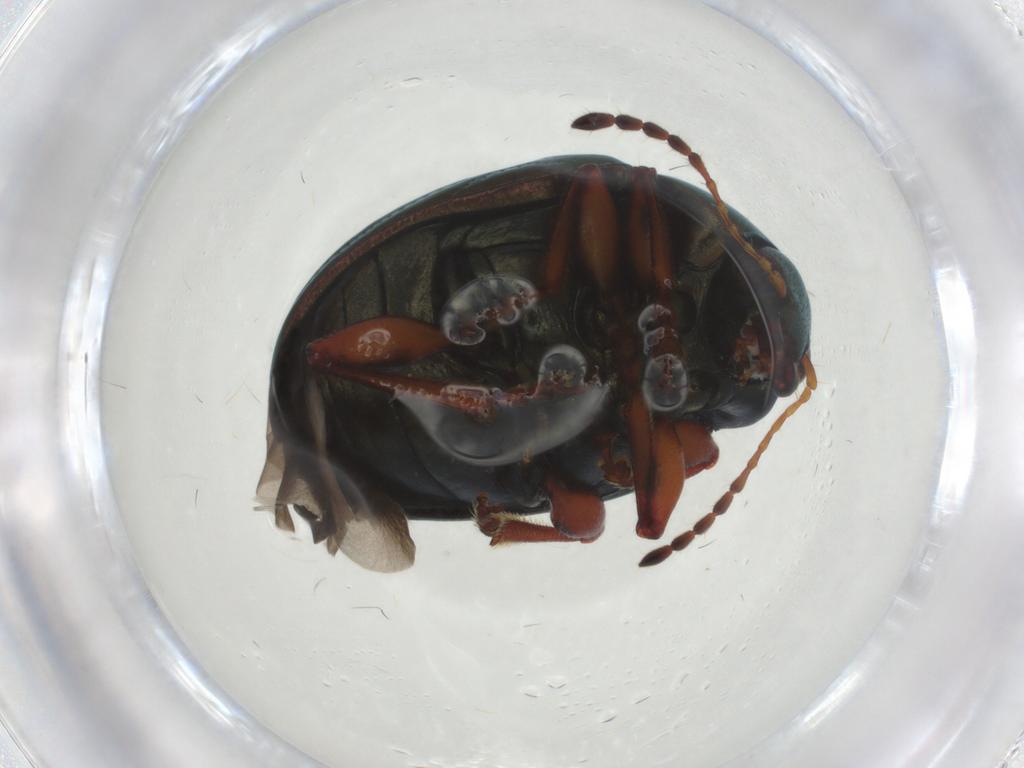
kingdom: Animalia
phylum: Arthropoda
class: Insecta
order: Coleoptera
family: Chrysomelidae
